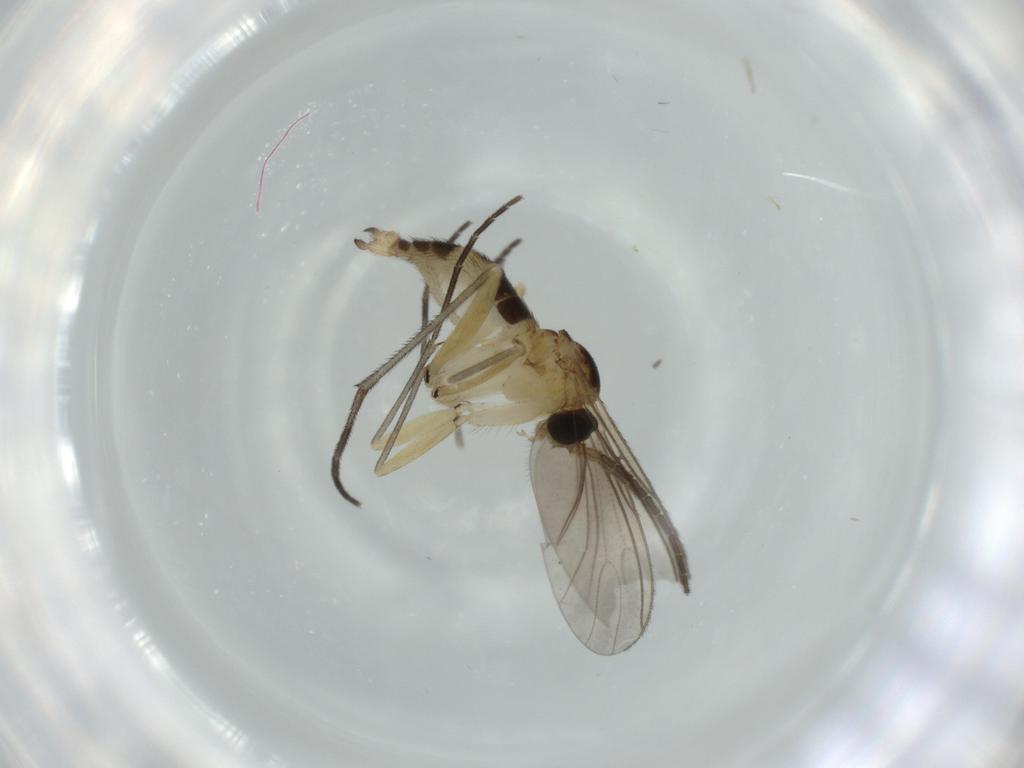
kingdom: Animalia
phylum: Arthropoda
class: Insecta
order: Diptera
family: Sciaridae
